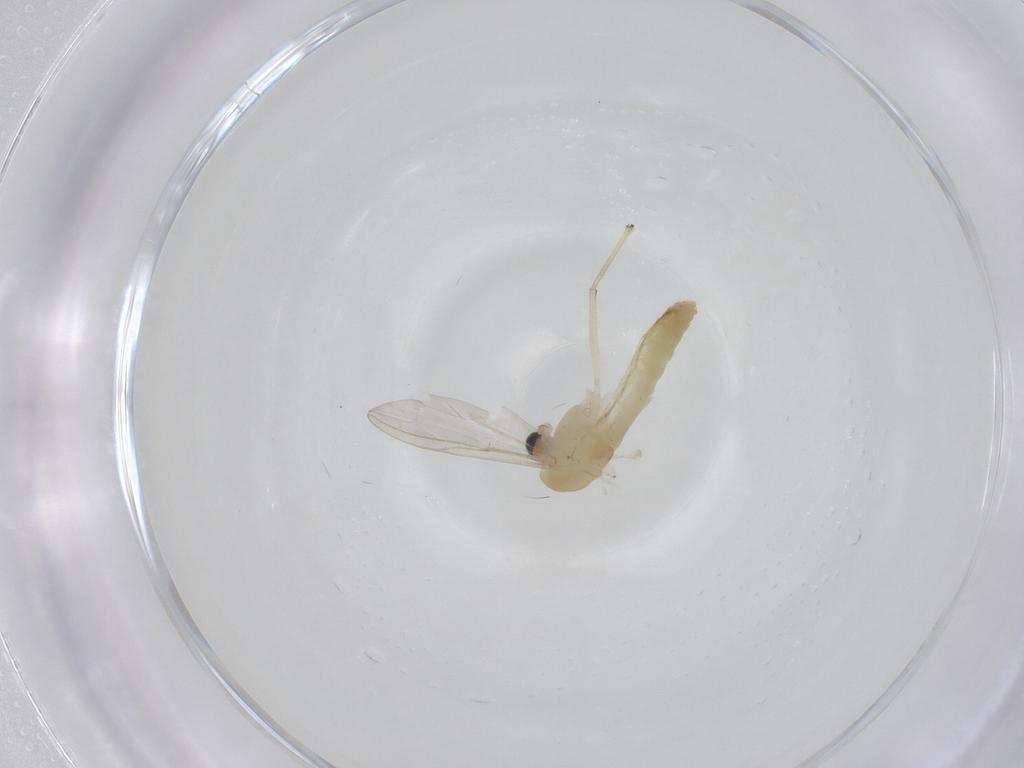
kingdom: Animalia
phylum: Arthropoda
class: Insecta
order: Diptera
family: Chironomidae
